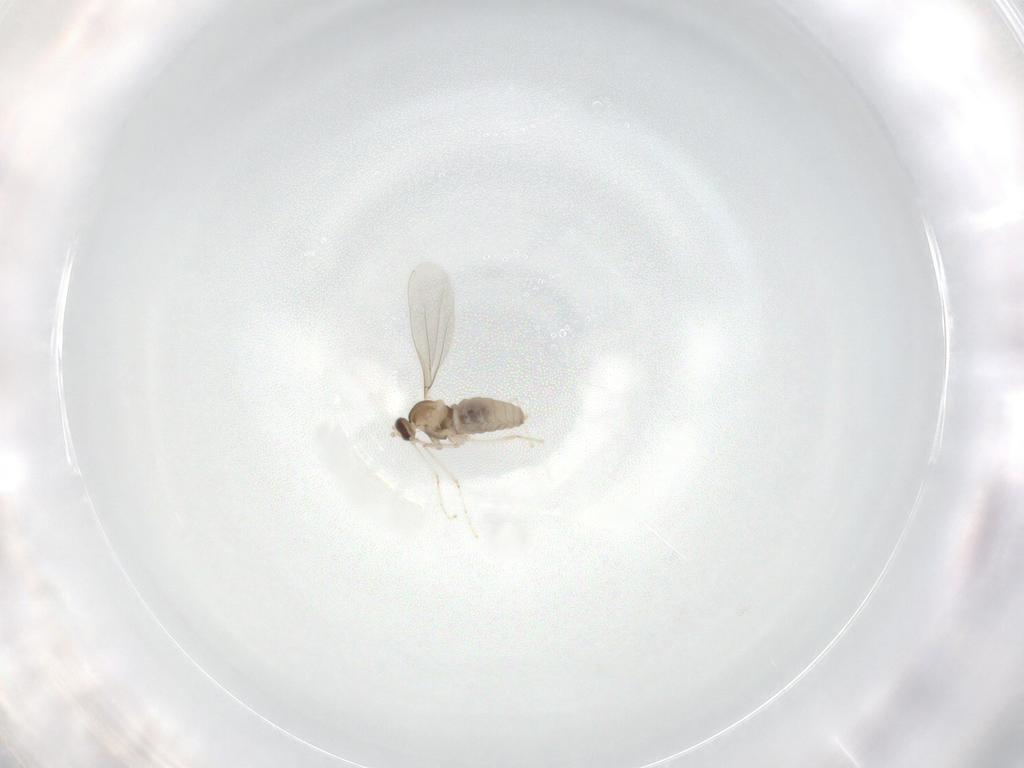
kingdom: Animalia
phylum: Arthropoda
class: Insecta
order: Diptera
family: Cecidomyiidae
